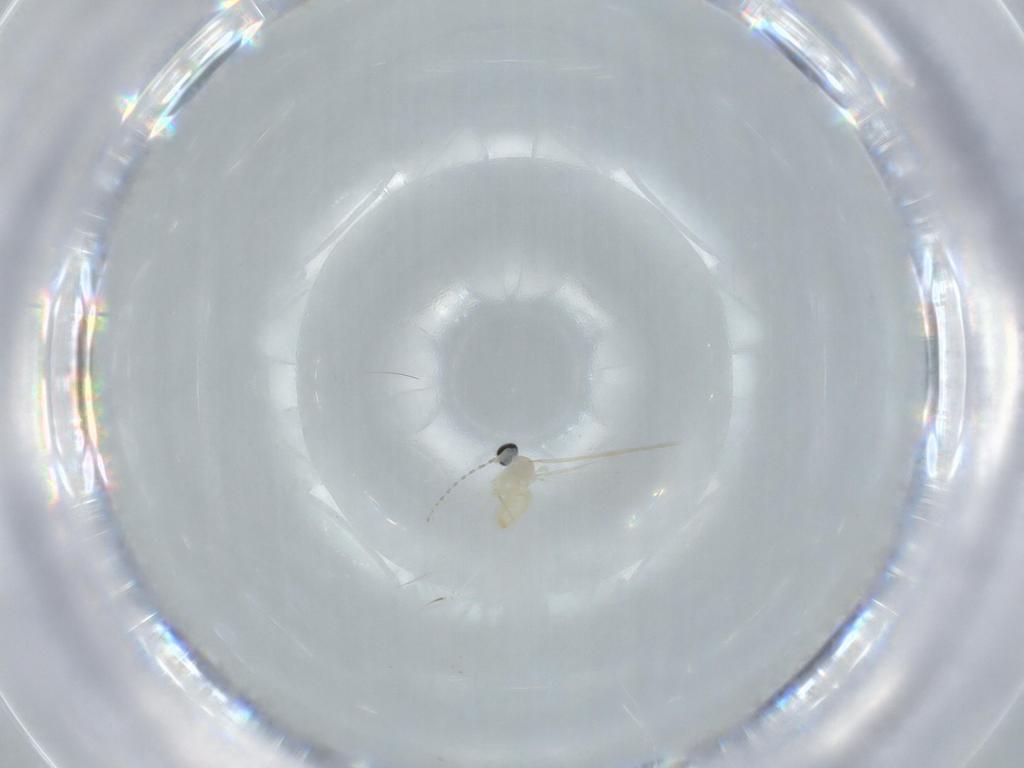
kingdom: Animalia
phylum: Arthropoda
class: Insecta
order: Diptera
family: Cecidomyiidae
